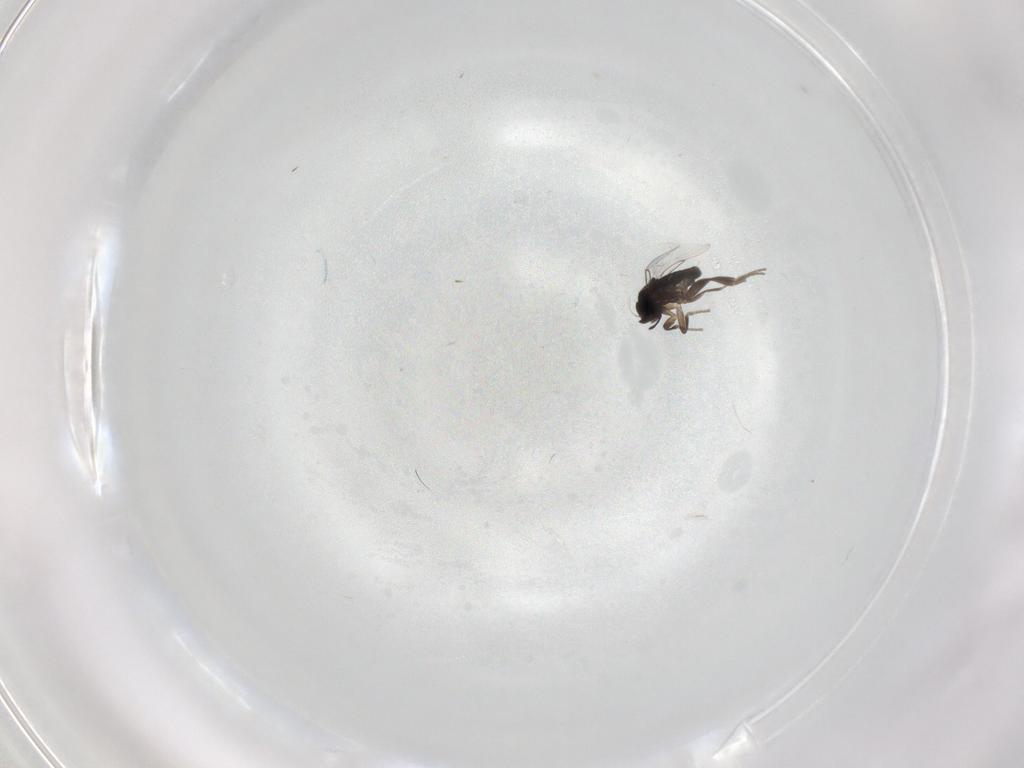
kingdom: Animalia
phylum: Arthropoda
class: Insecta
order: Diptera
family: Phoridae
